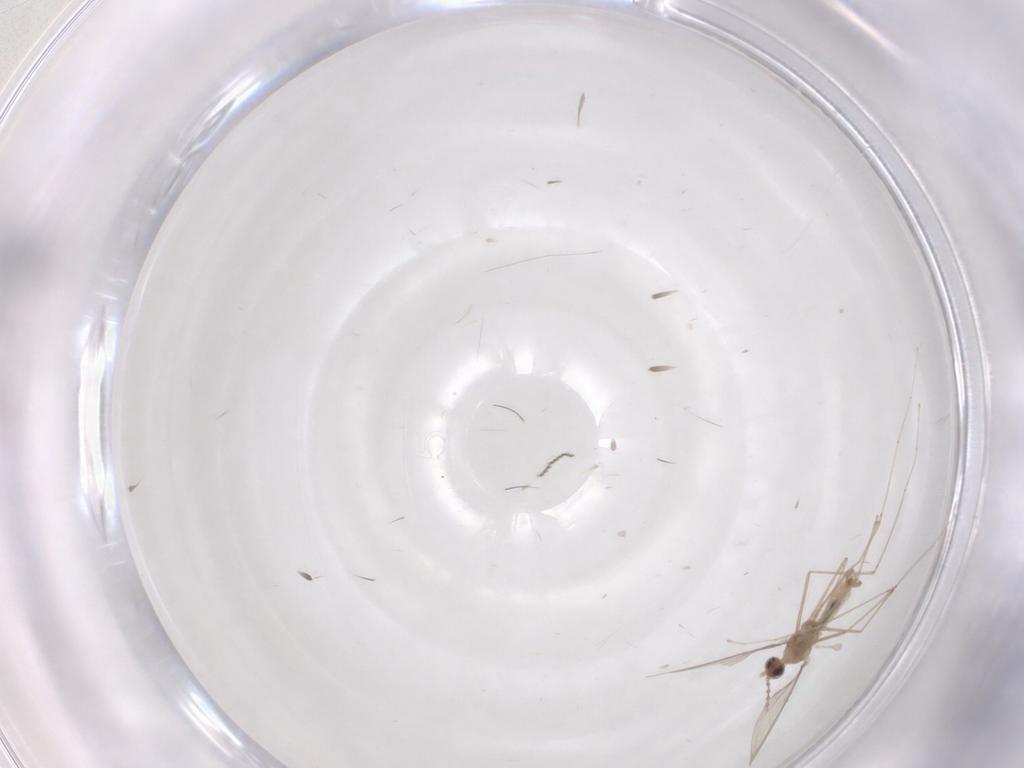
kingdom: Animalia
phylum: Arthropoda
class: Insecta
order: Diptera
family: Cecidomyiidae
